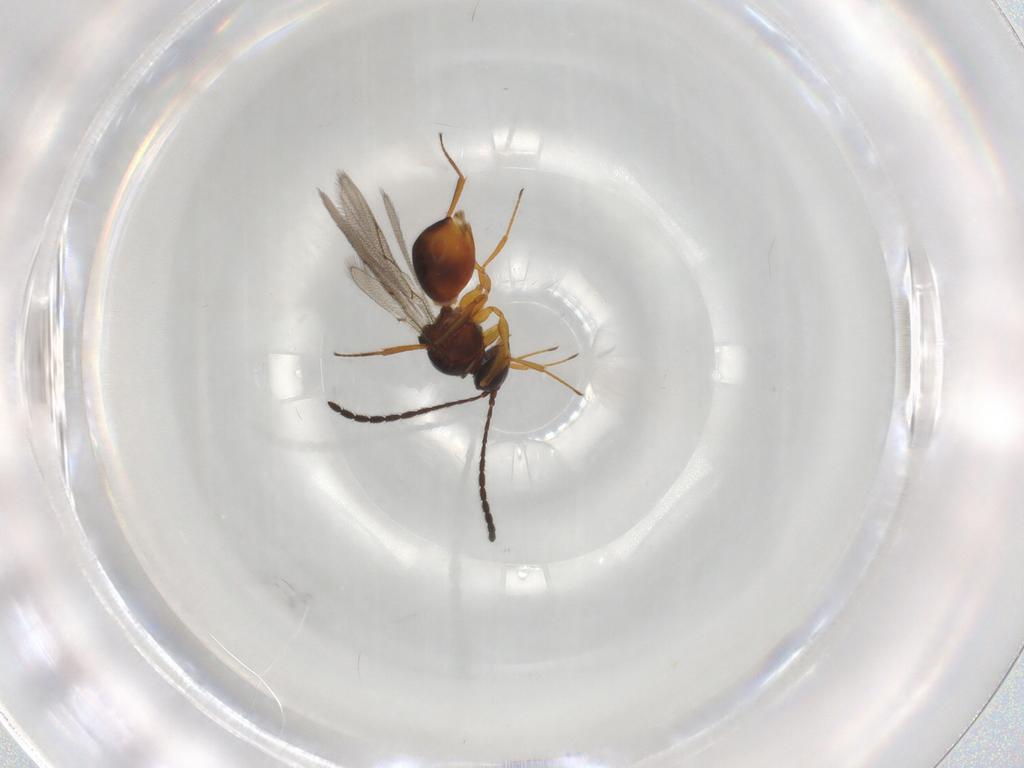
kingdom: Animalia
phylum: Arthropoda
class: Insecta
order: Hymenoptera
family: Figitidae
